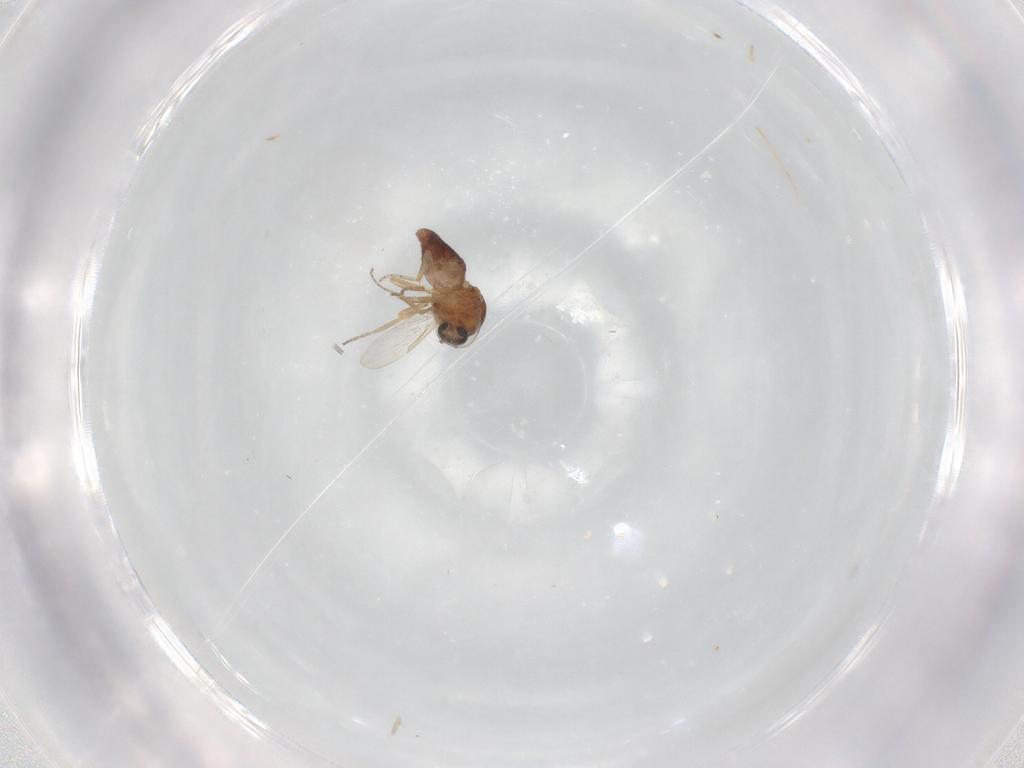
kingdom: Animalia
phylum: Arthropoda
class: Insecta
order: Diptera
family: Ceratopogonidae
